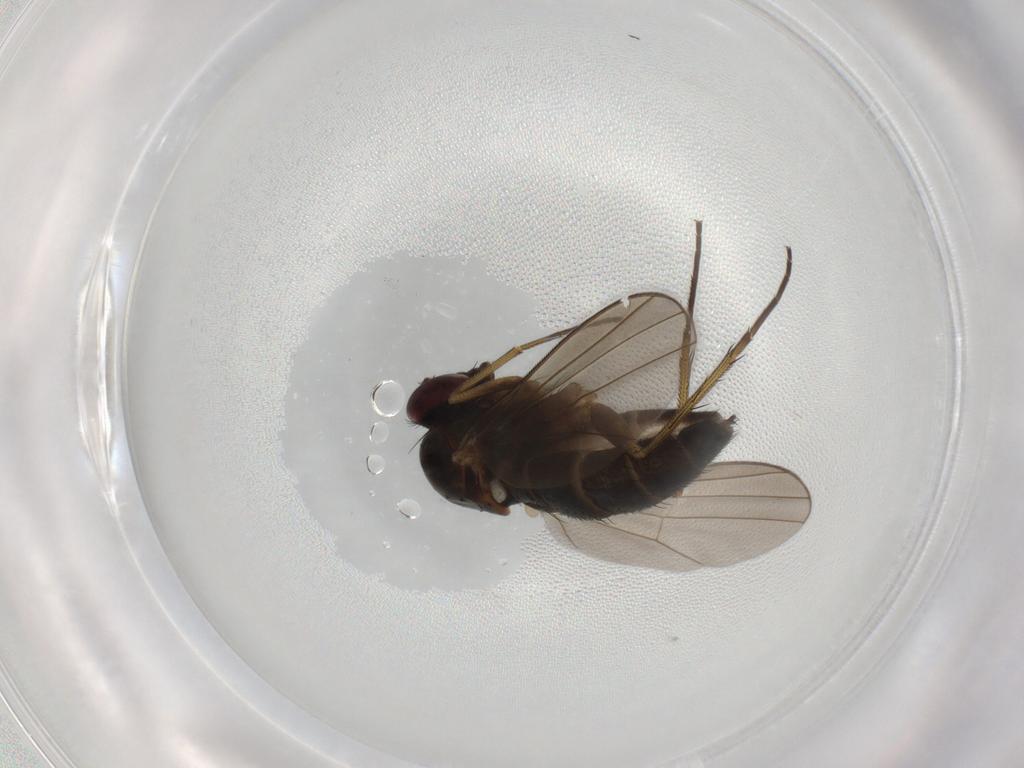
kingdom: Animalia
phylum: Arthropoda
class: Insecta
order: Diptera
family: Dolichopodidae
